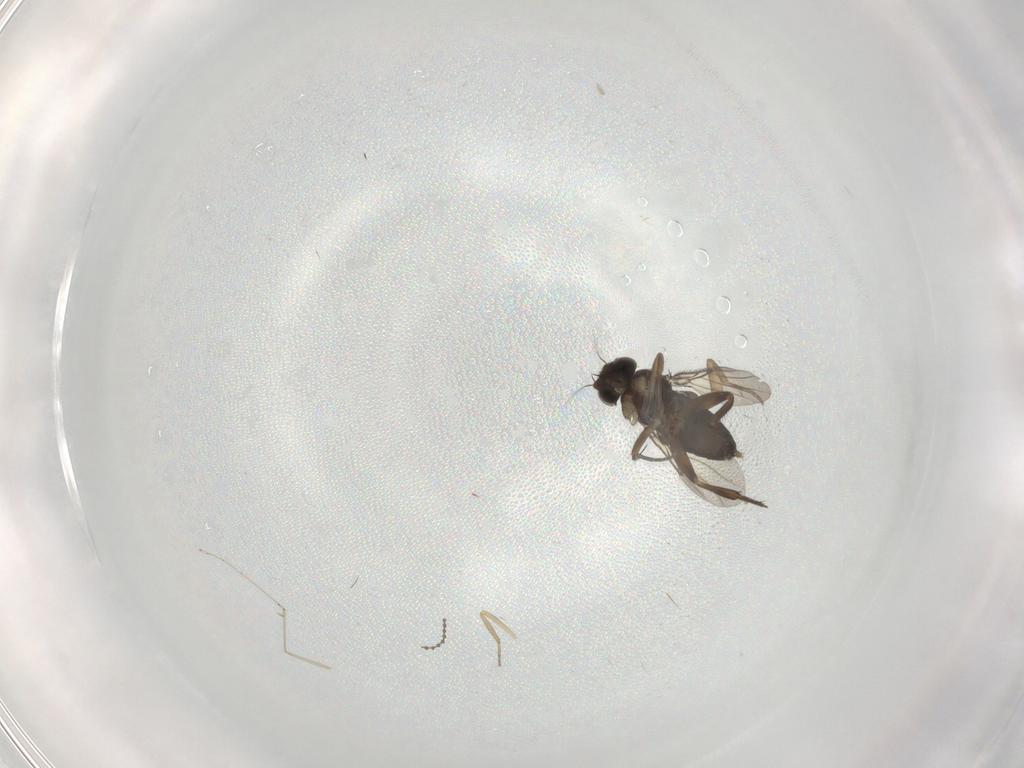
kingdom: Animalia
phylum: Arthropoda
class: Insecta
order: Diptera
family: Phoridae
